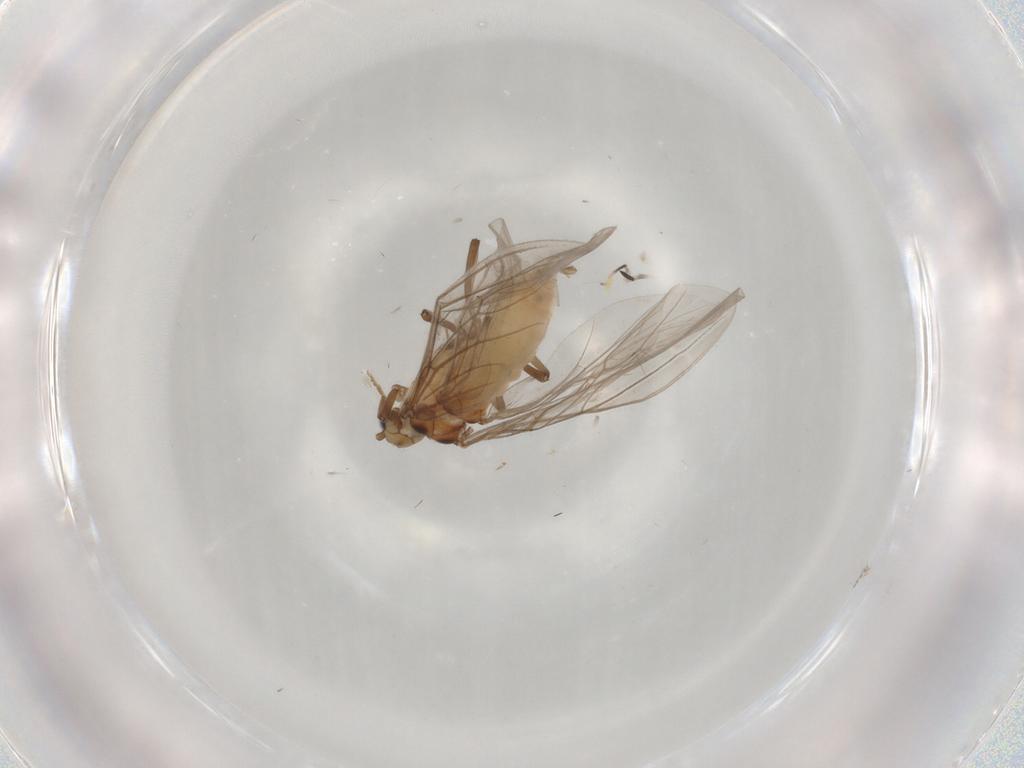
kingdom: Animalia
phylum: Arthropoda
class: Insecta
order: Neuroptera
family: Coniopterygidae
